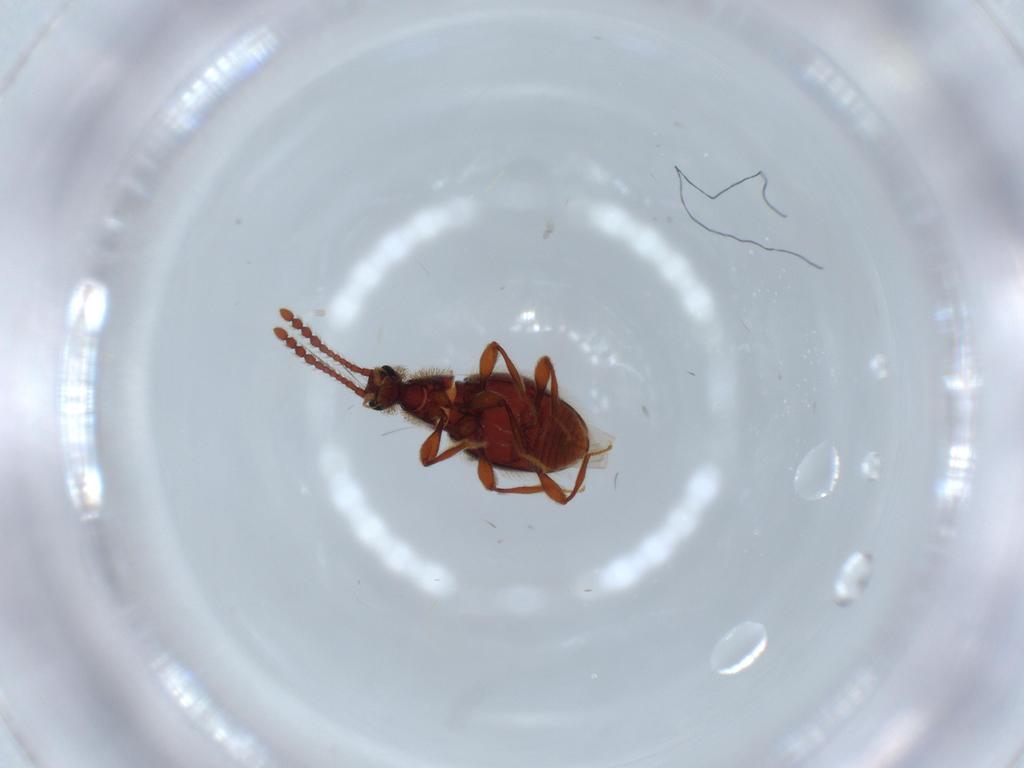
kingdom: Animalia
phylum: Arthropoda
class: Insecta
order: Coleoptera
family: Chrysomelidae
